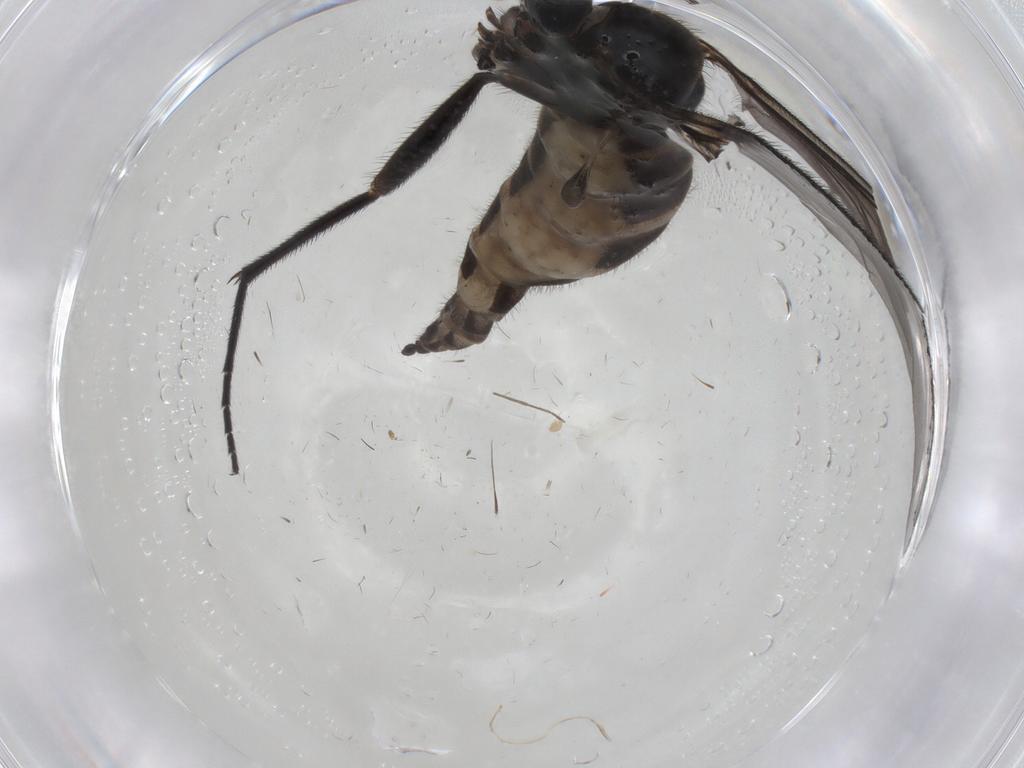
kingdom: Animalia
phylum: Arthropoda
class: Insecta
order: Diptera
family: Sciaridae
